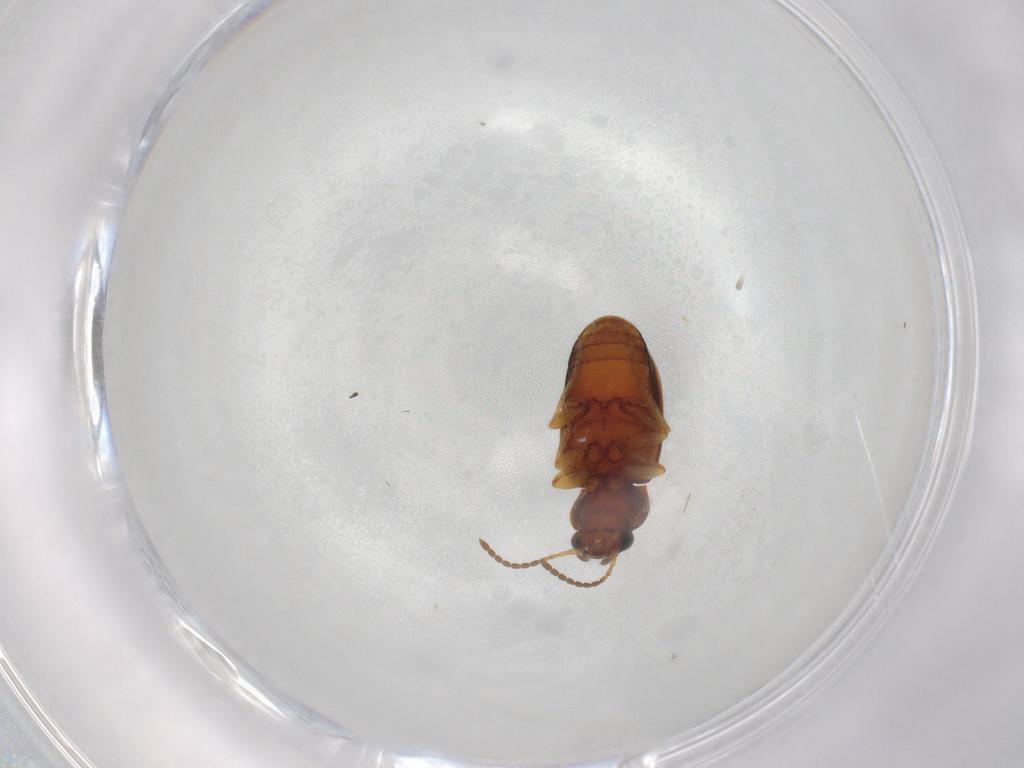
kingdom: Animalia
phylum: Arthropoda
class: Insecta
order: Coleoptera
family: Carabidae
